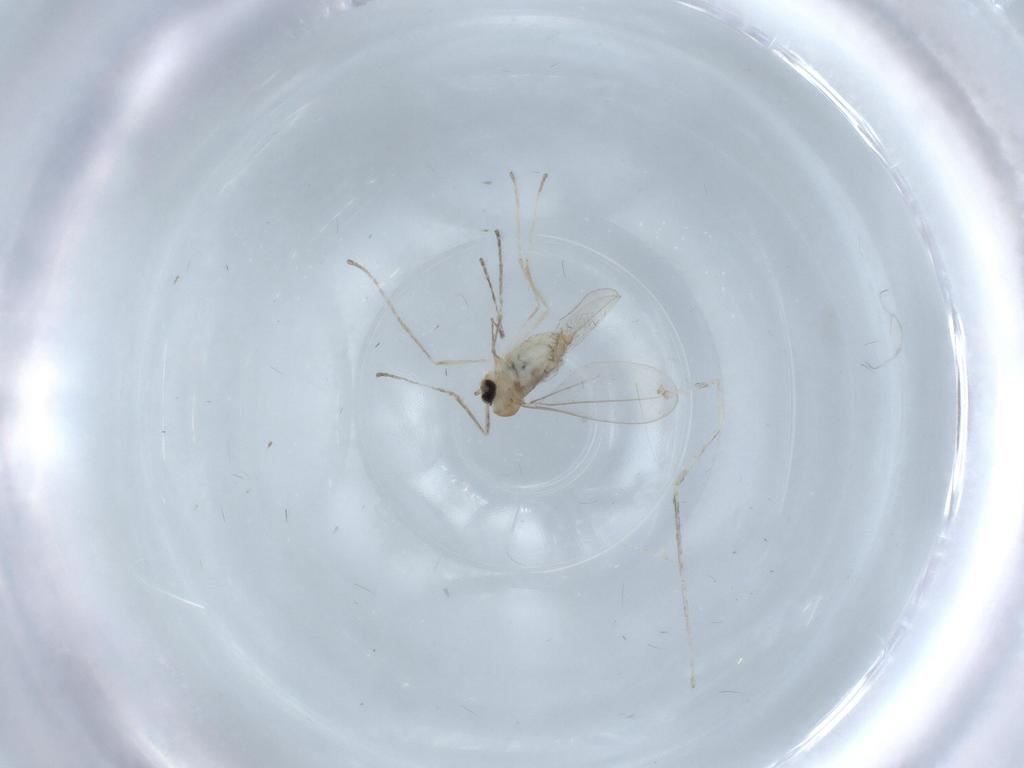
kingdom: Animalia
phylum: Arthropoda
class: Insecta
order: Diptera
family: Cecidomyiidae
